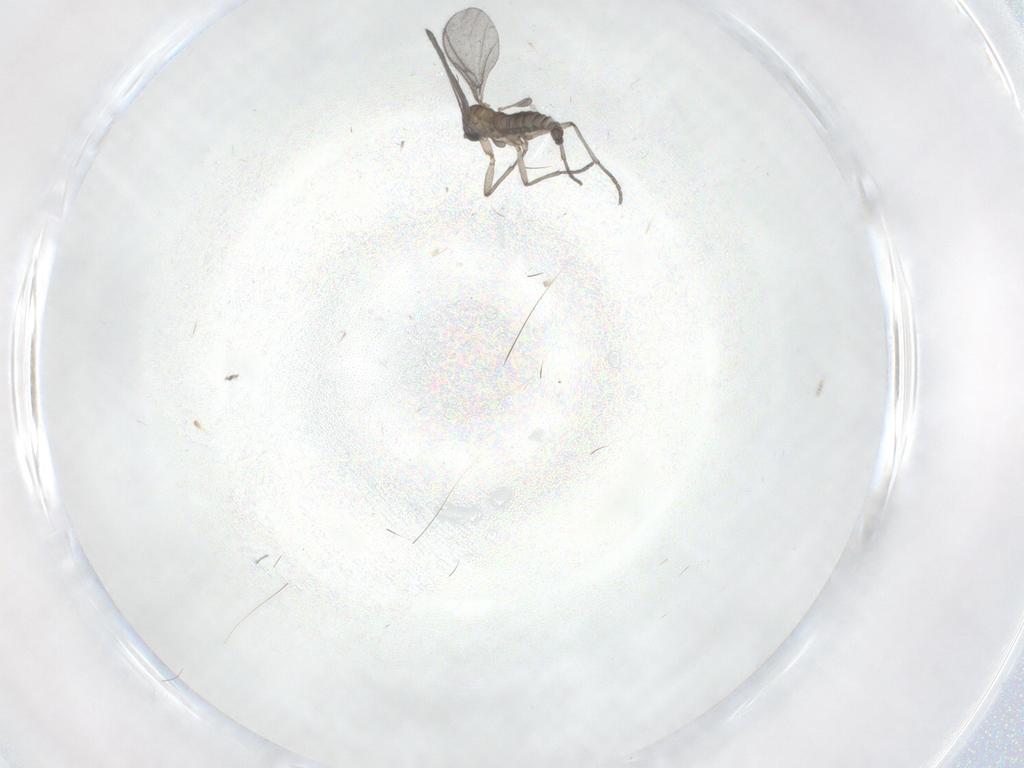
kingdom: Animalia
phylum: Arthropoda
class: Insecta
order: Diptera
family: Sciaridae
